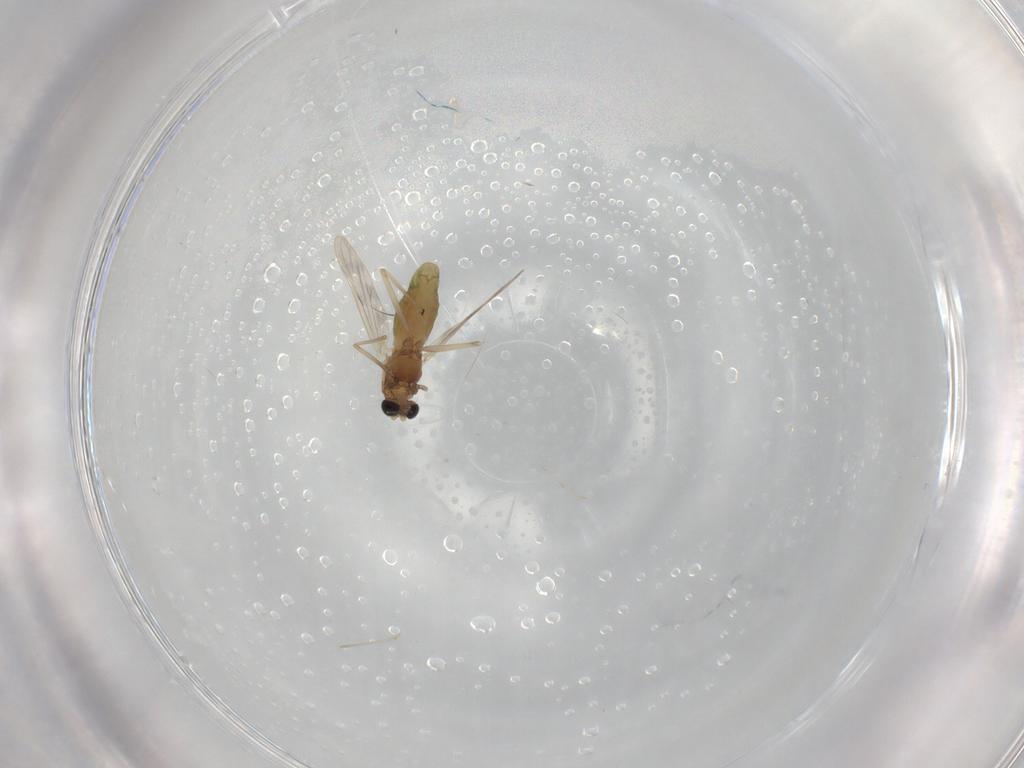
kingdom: Animalia
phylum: Arthropoda
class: Insecta
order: Diptera
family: Chironomidae
